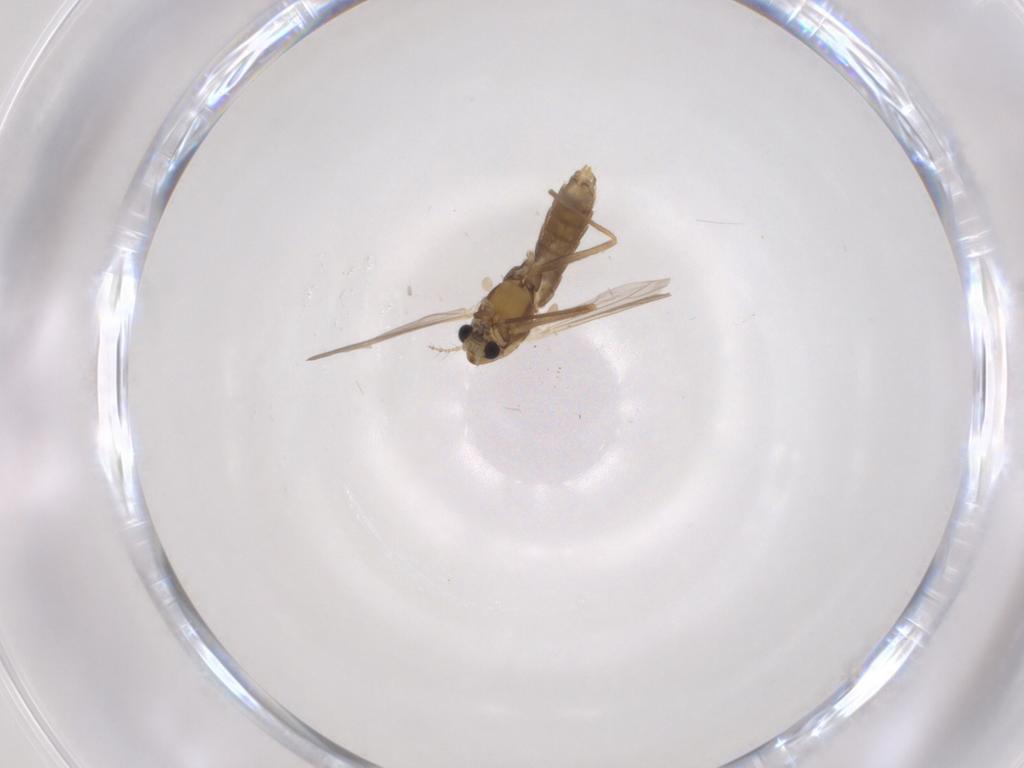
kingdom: Animalia
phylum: Arthropoda
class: Insecta
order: Diptera
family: Chironomidae
